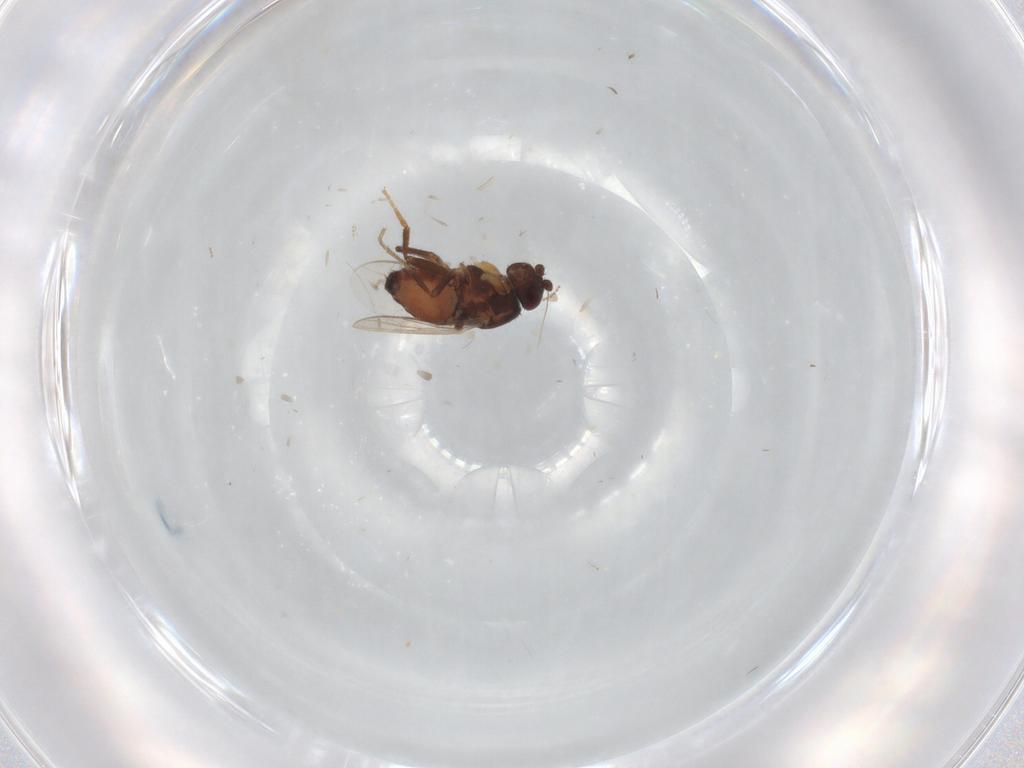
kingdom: Animalia
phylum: Arthropoda
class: Insecta
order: Diptera
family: Sphaeroceridae
